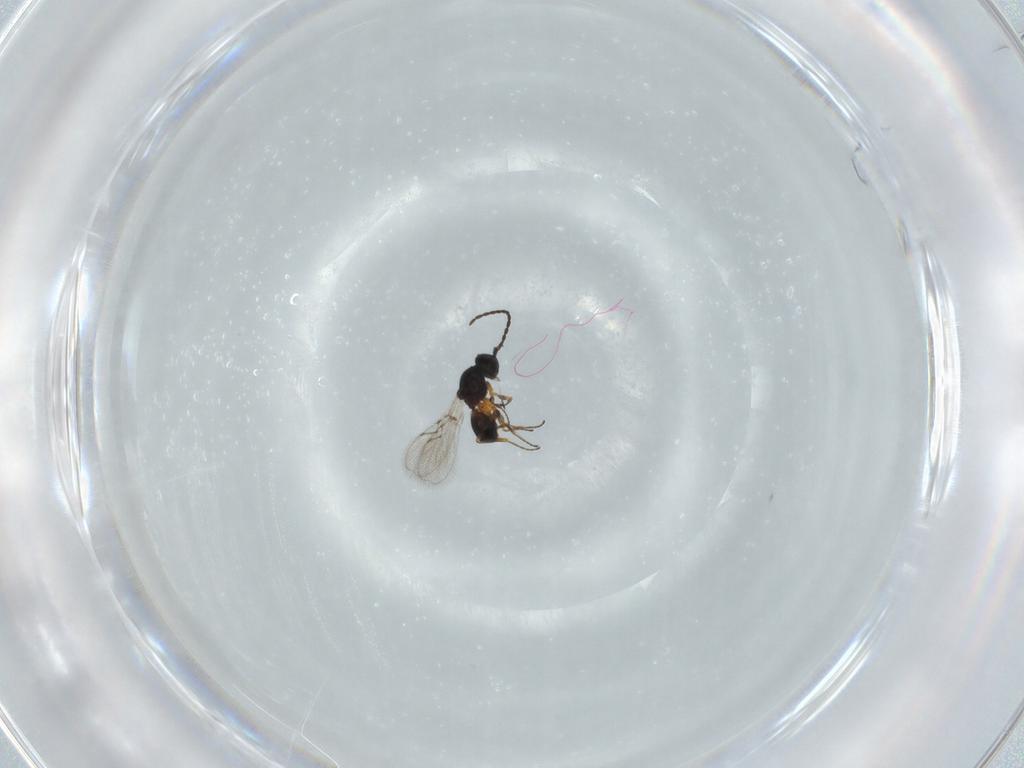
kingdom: Animalia
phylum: Arthropoda
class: Insecta
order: Hymenoptera
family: Figitidae
